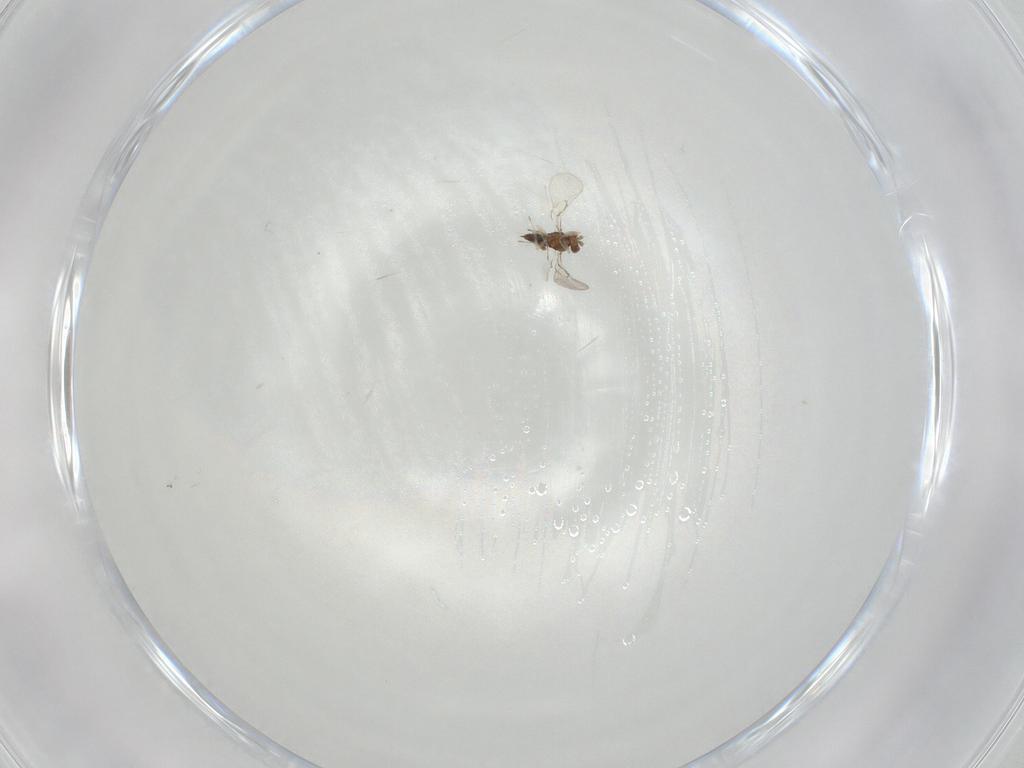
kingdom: Animalia
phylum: Arthropoda
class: Insecta
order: Hymenoptera
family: Trichogrammatidae
